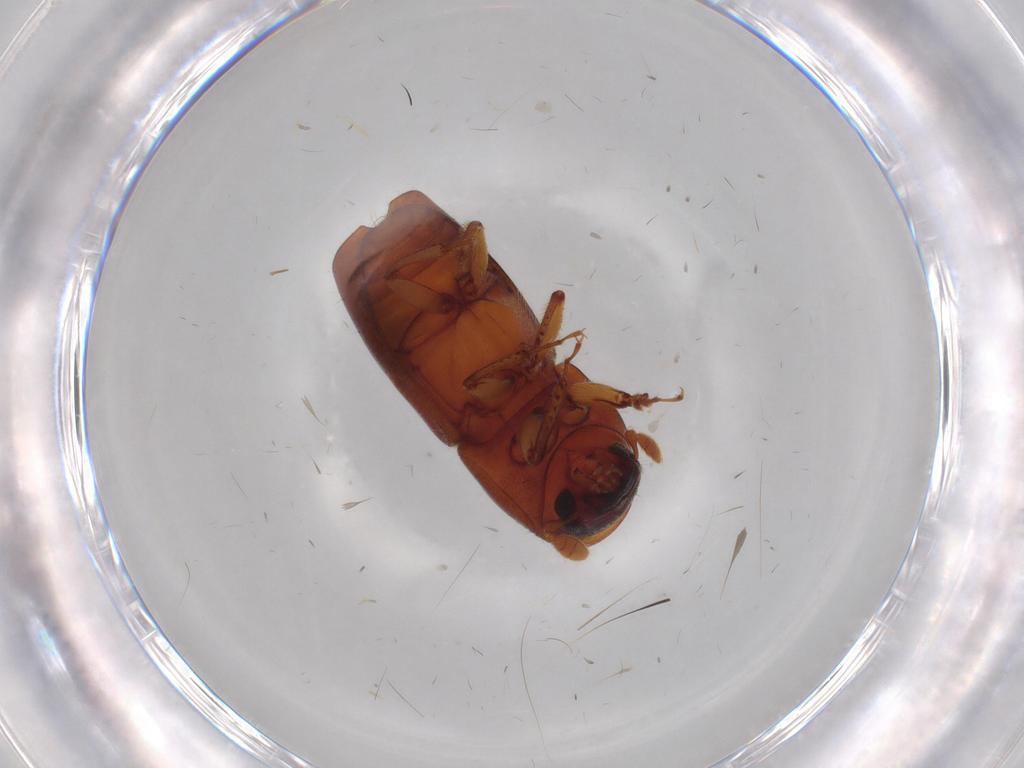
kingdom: Animalia
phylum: Arthropoda
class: Insecta
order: Coleoptera
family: Curculionidae
